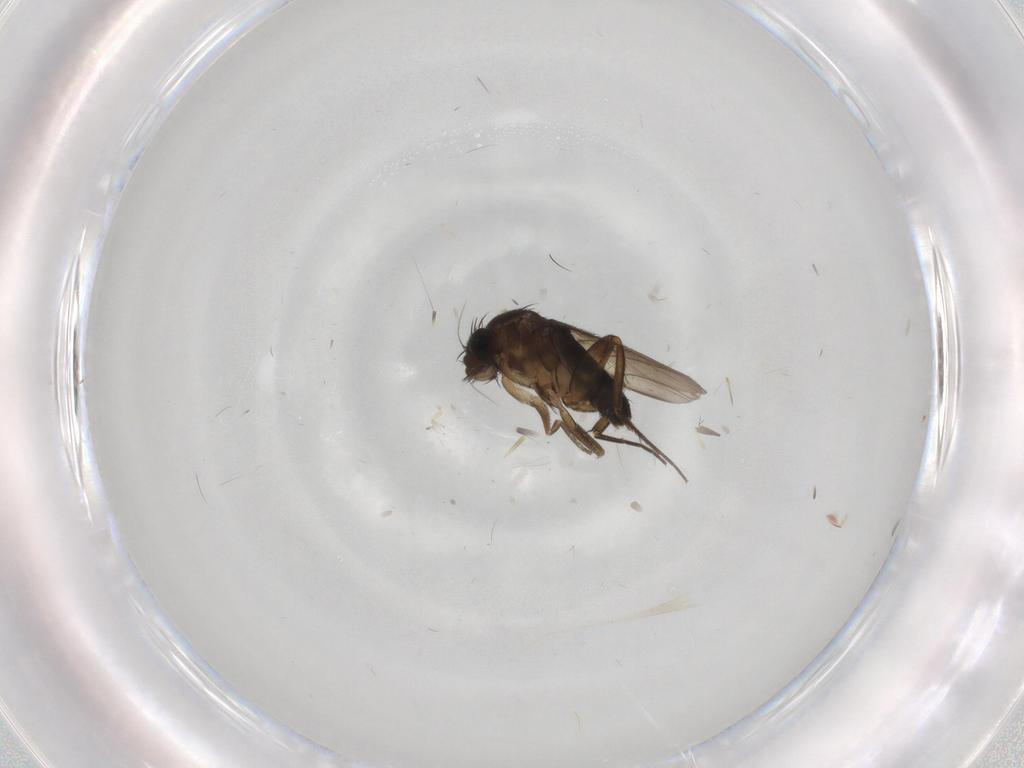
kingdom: Animalia
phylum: Arthropoda
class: Insecta
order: Diptera
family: Phoridae
